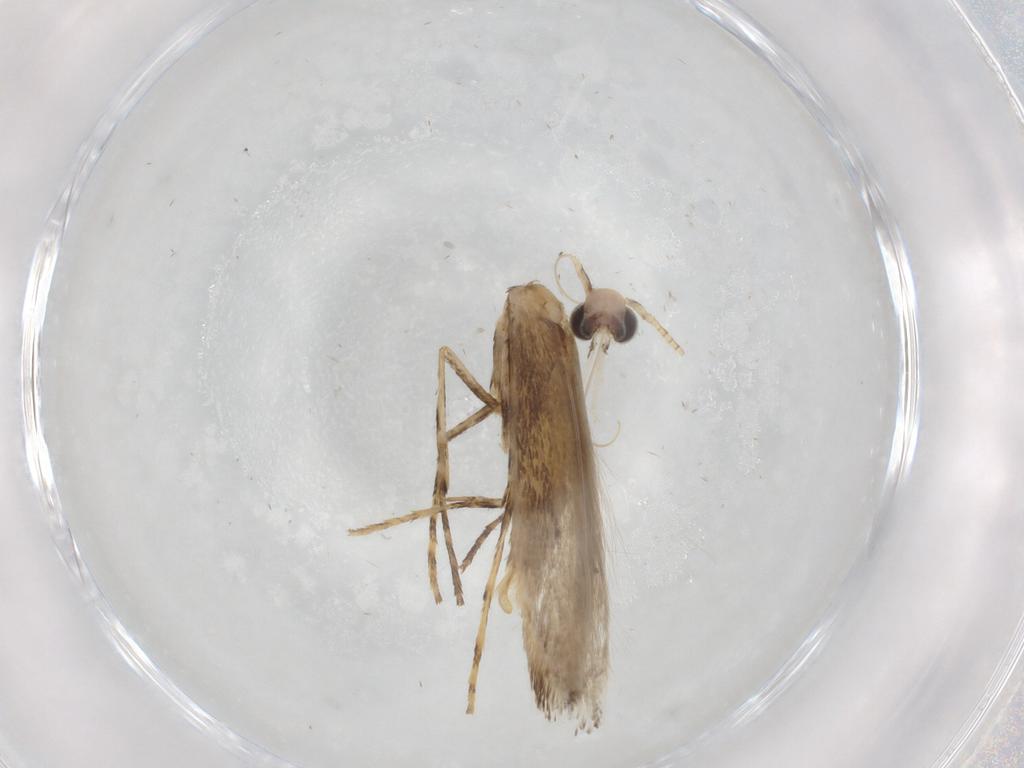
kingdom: Animalia
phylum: Arthropoda
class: Insecta
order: Lepidoptera
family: Gracillariidae
